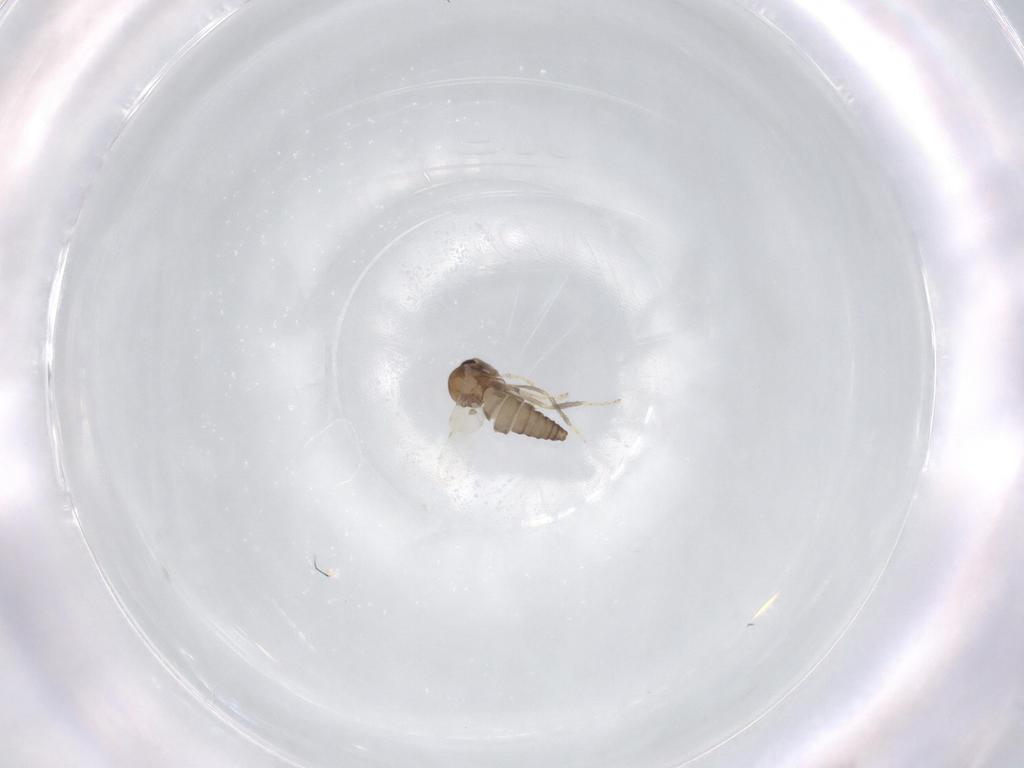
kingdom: Animalia
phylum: Arthropoda
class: Insecta
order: Diptera
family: Ceratopogonidae
